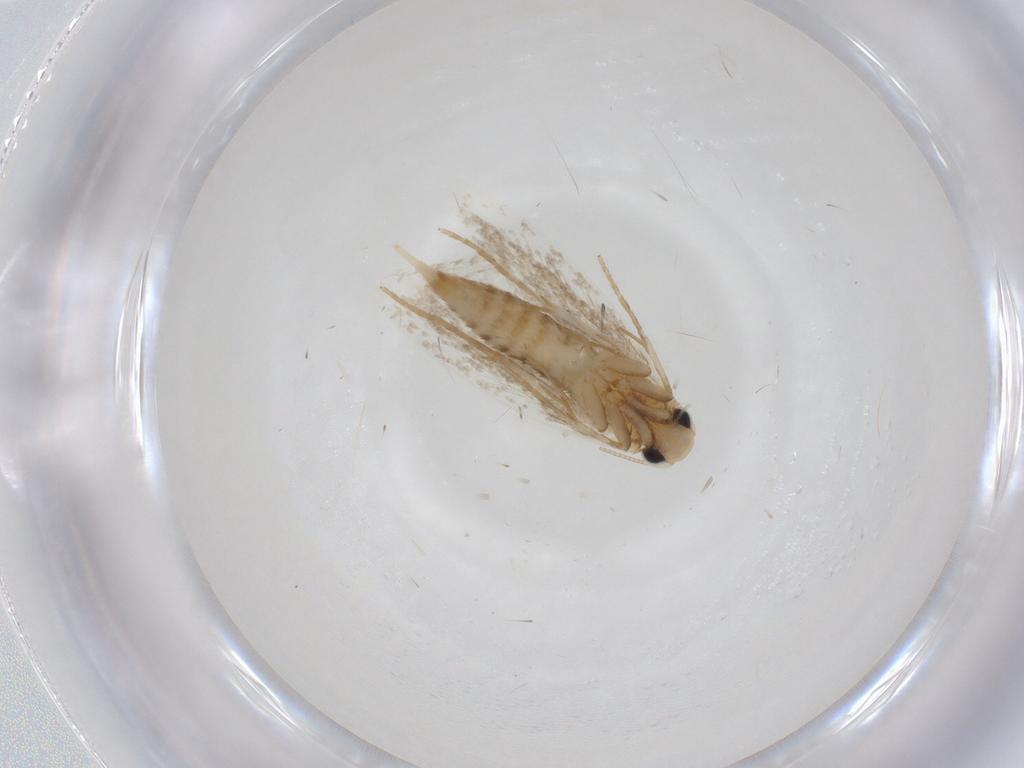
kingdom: Animalia
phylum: Arthropoda
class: Insecta
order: Lepidoptera
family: Tineidae
